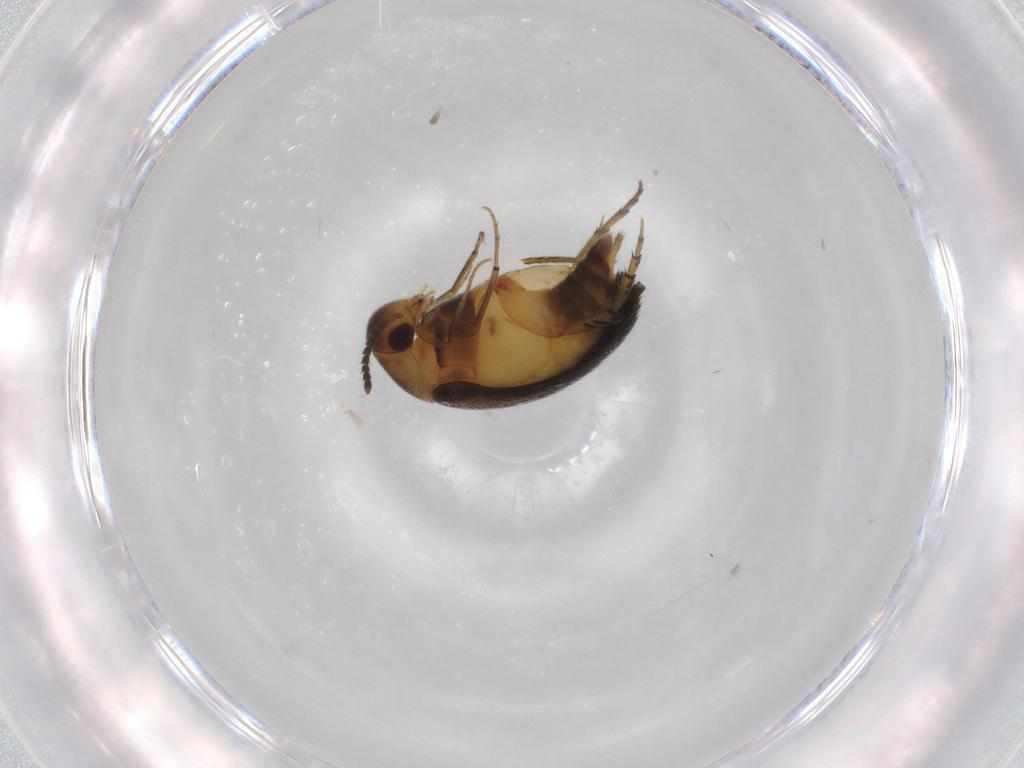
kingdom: Animalia
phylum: Arthropoda
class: Insecta
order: Coleoptera
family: Mordellidae
